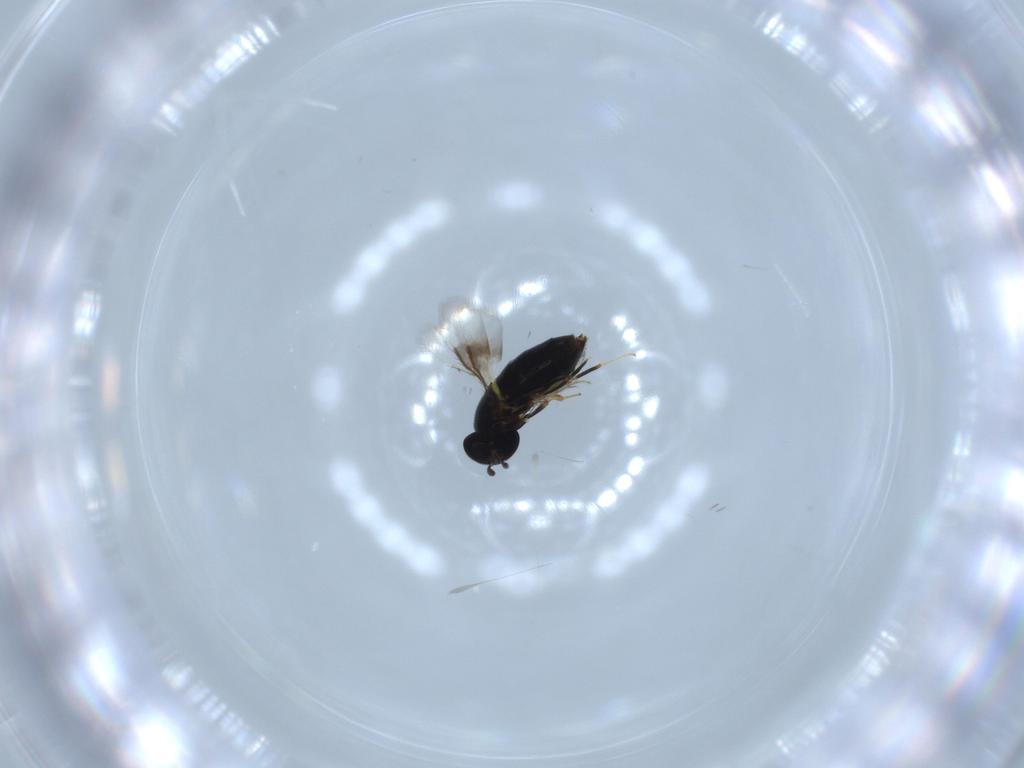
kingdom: Animalia
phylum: Arthropoda
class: Insecta
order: Hymenoptera
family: Signiphoridae
